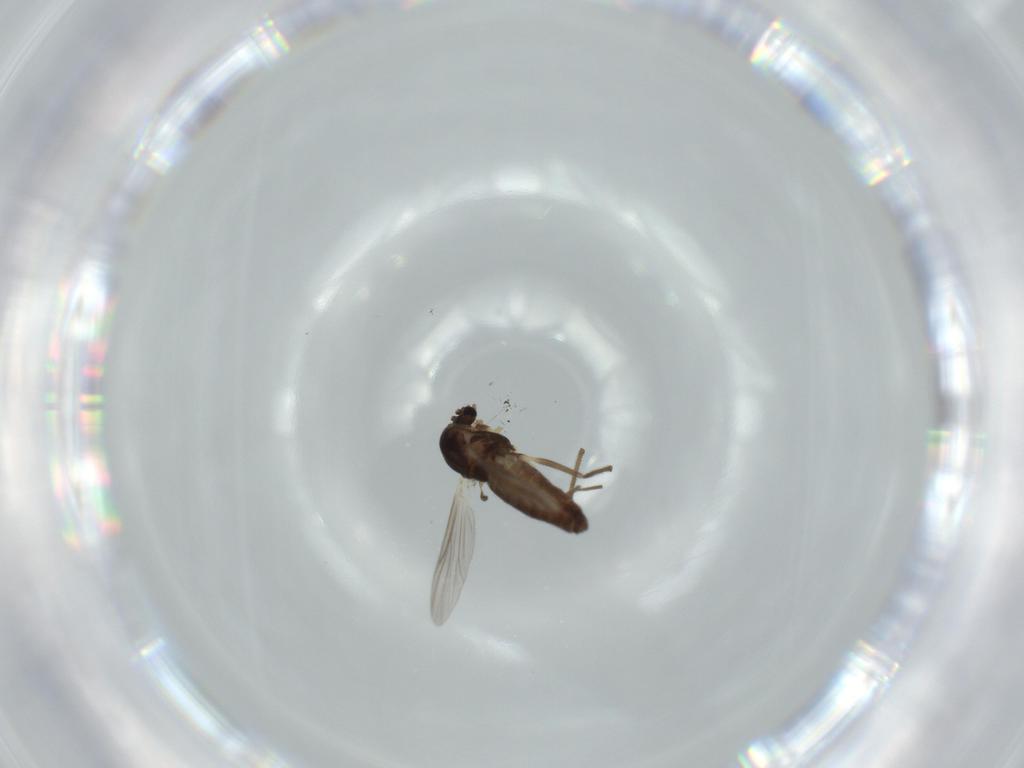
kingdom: Animalia
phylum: Arthropoda
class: Insecta
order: Diptera
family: Chironomidae
